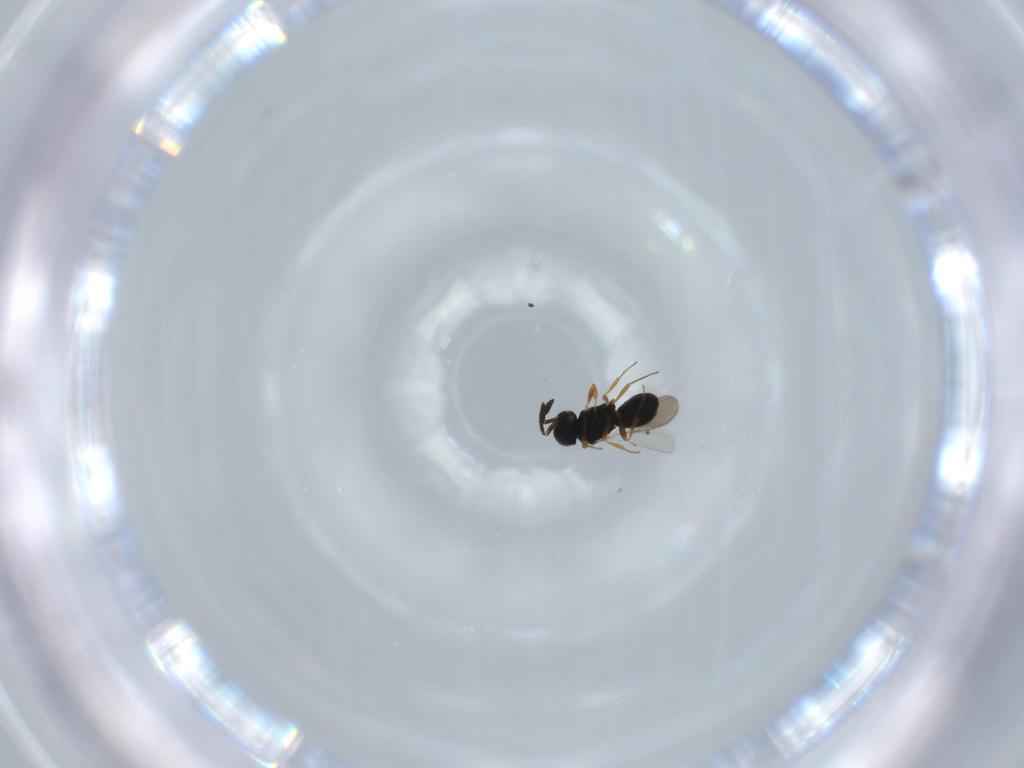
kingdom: Animalia
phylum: Arthropoda
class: Insecta
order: Hymenoptera
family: Scelionidae
